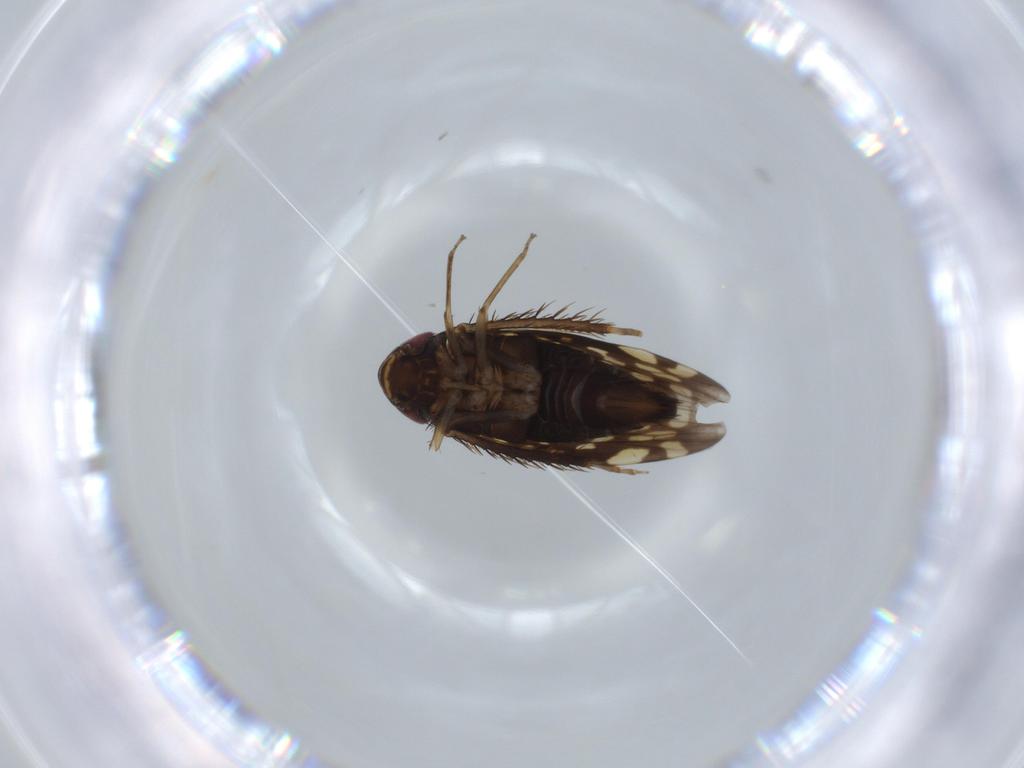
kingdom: Animalia
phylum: Arthropoda
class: Insecta
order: Hemiptera
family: Cicadellidae
